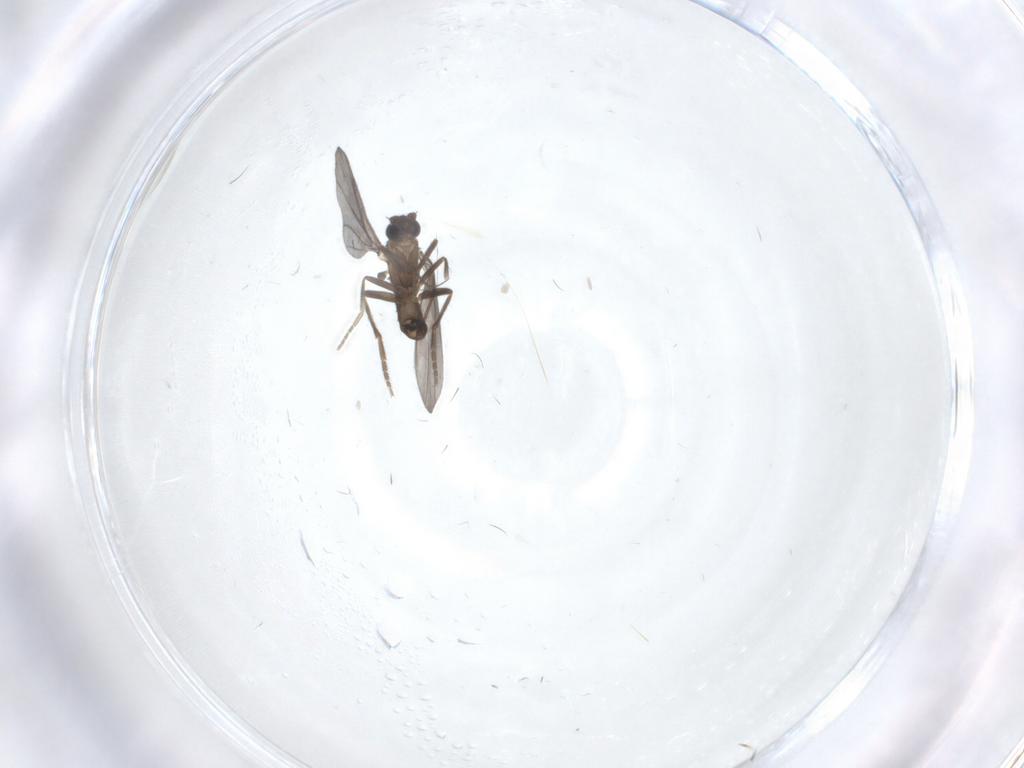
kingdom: Animalia
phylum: Arthropoda
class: Insecta
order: Diptera
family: Phoridae
